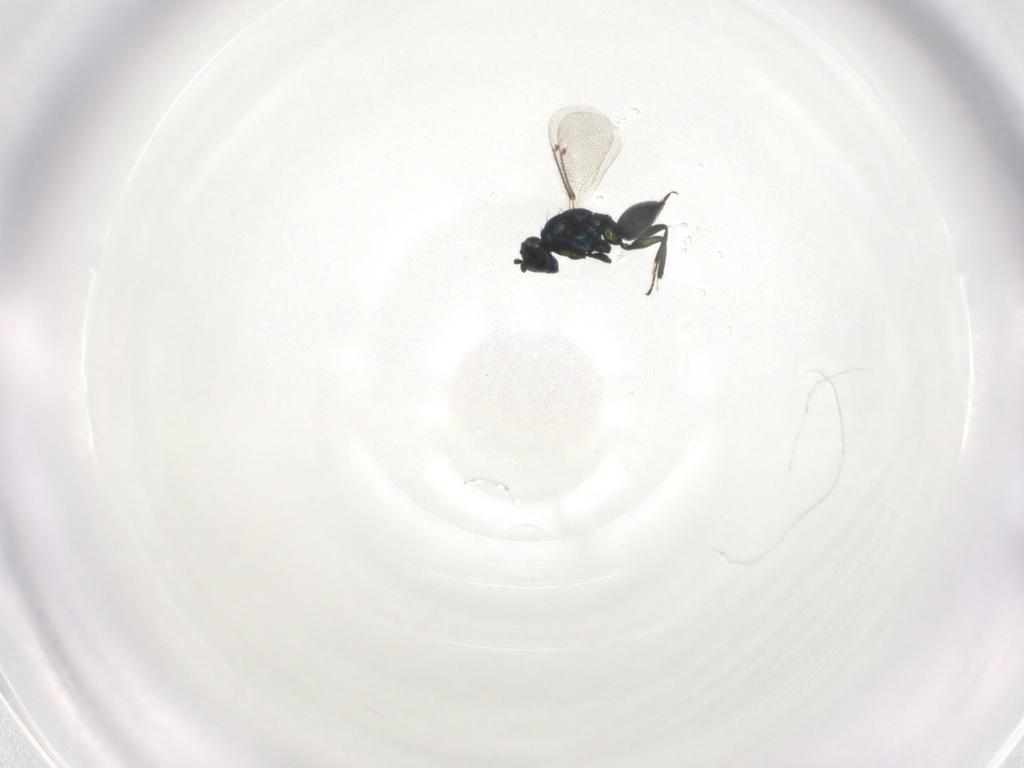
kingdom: Animalia
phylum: Arthropoda
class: Insecta
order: Hymenoptera
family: Eulophidae
